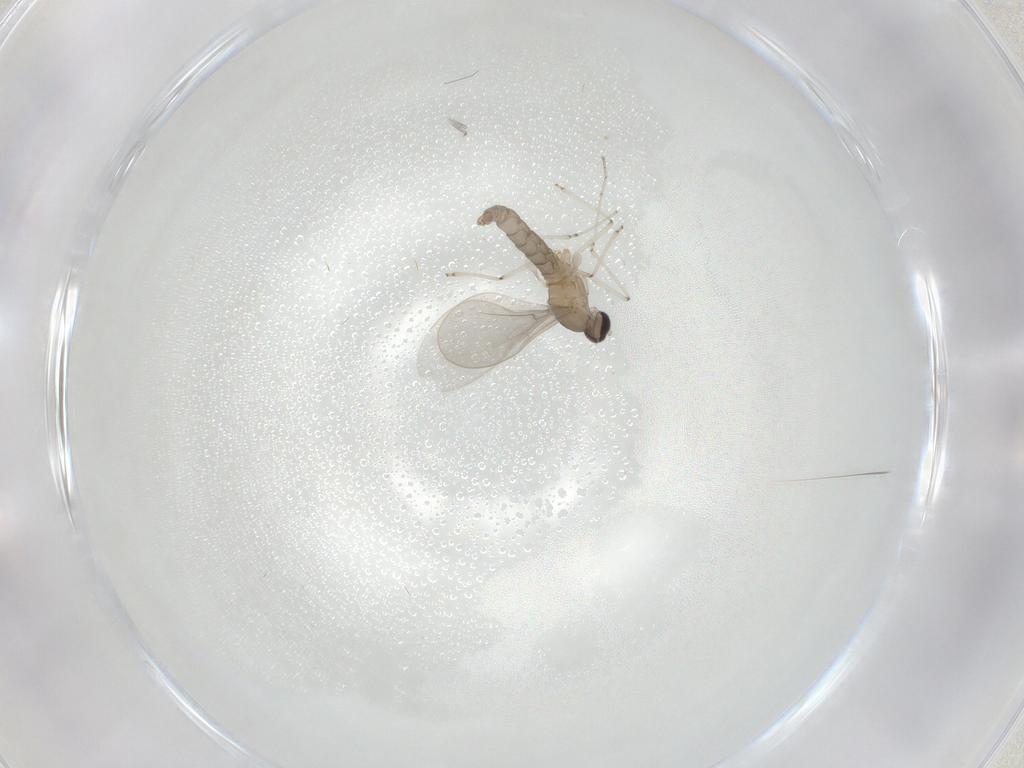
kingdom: Animalia
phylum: Arthropoda
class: Insecta
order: Diptera
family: Cecidomyiidae
